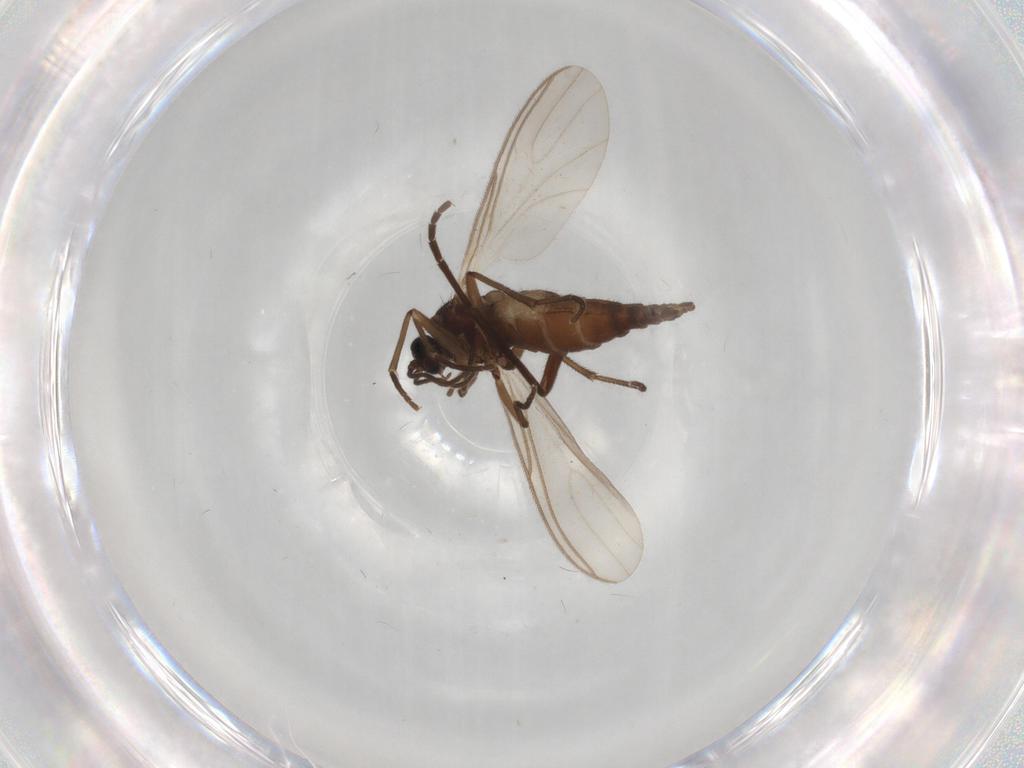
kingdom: Animalia
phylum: Arthropoda
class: Insecta
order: Diptera
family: Sciaridae
